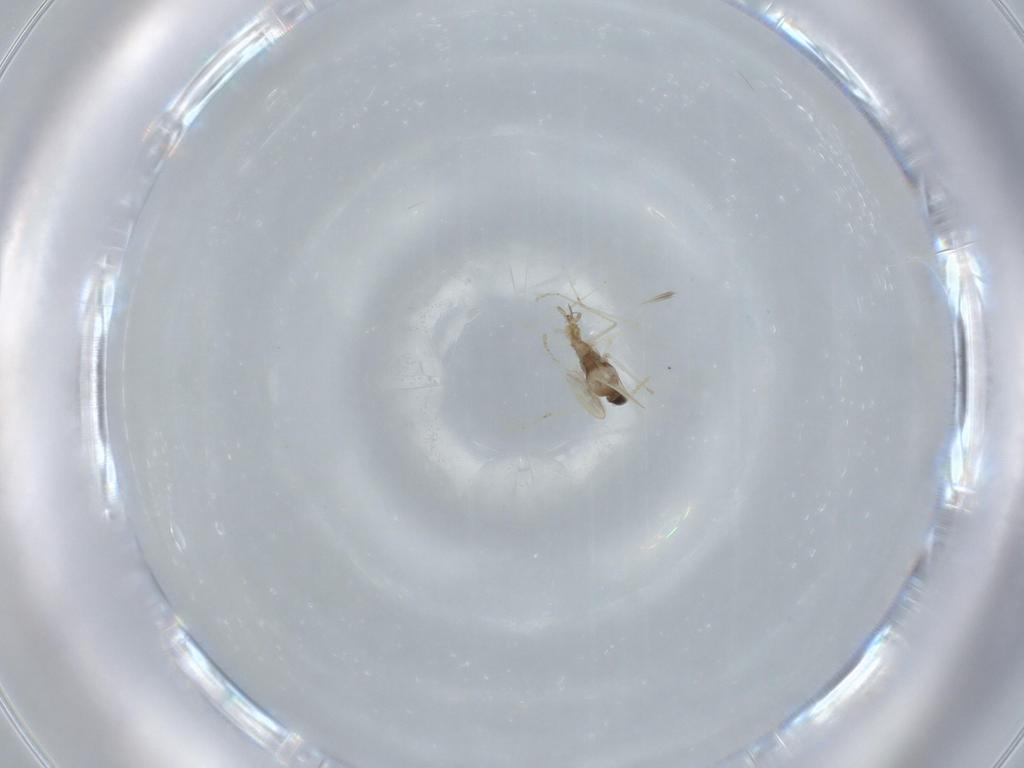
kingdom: Animalia
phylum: Arthropoda
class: Insecta
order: Diptera
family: Cecidomyiidae
